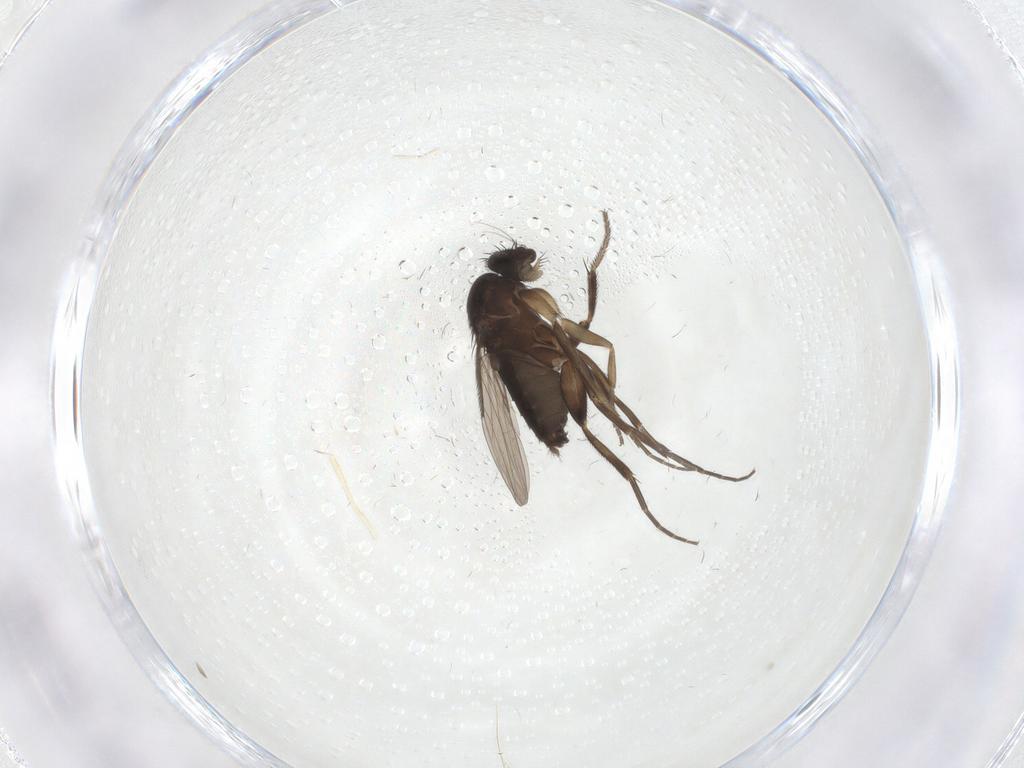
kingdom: Animalia
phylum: Arthropoda
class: Insecta
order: Diptera
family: Phoridae
